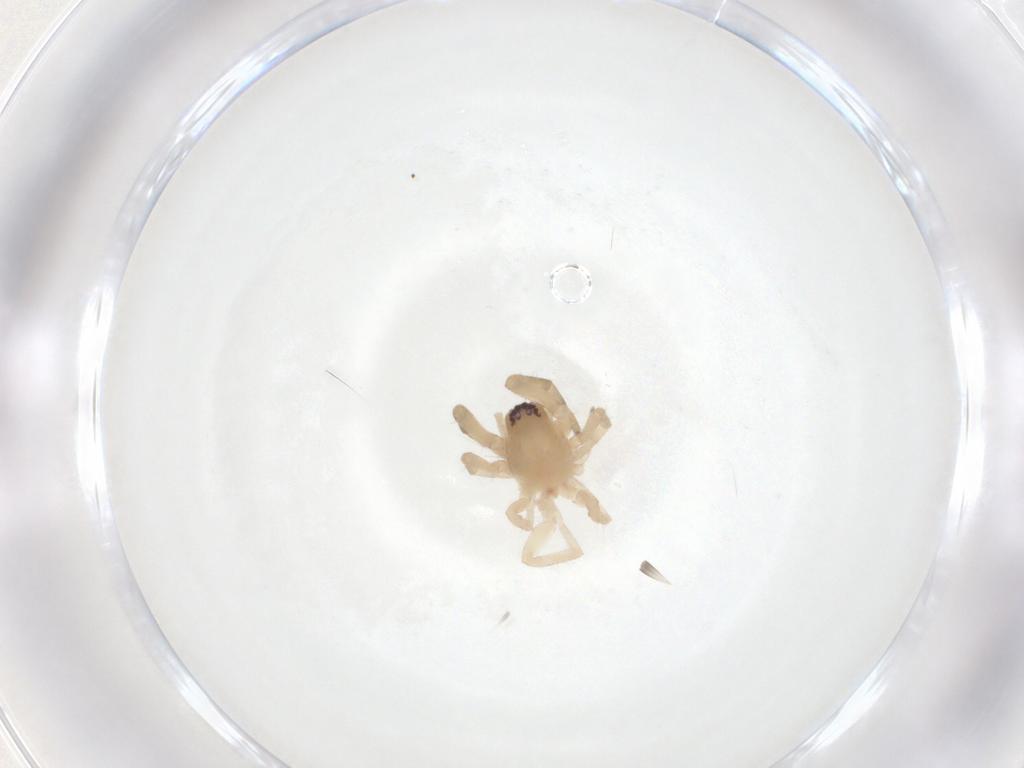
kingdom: Animalia
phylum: Arthropoda
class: Arachnida
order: Araneae
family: Trachelidae
